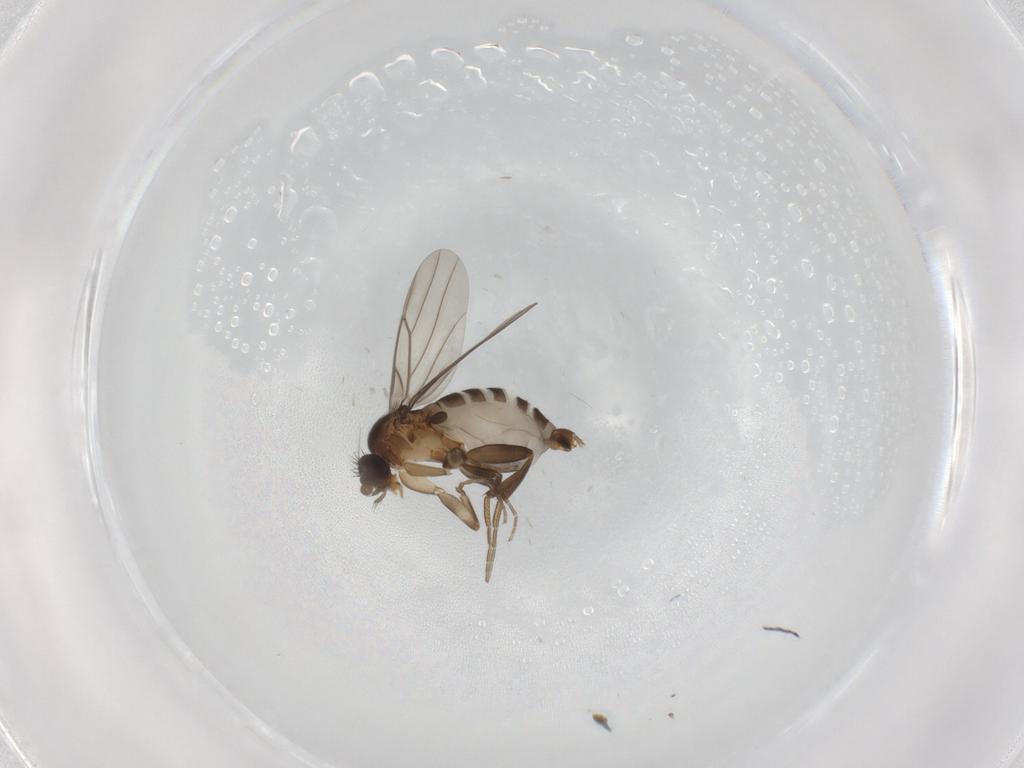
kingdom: Animalia
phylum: Arthropoda
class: Insecta
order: Diptera
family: Phoridae
